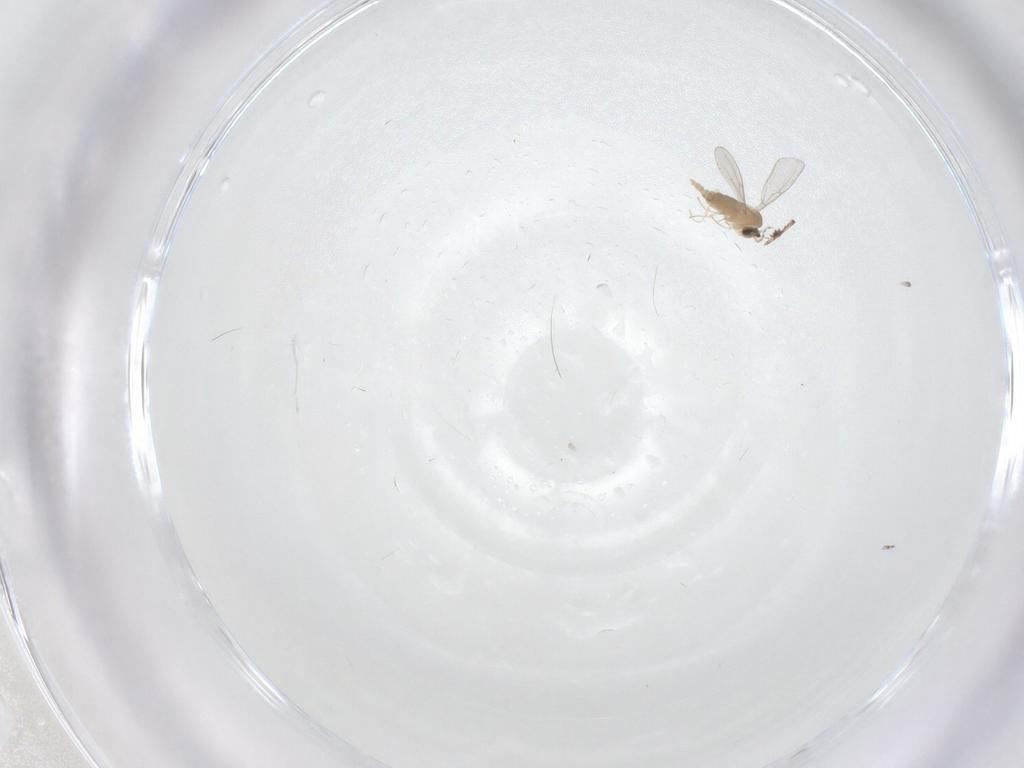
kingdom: Animalia
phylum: Arthropoda
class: Insecta
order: Diptera
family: Cecidomyiidae
